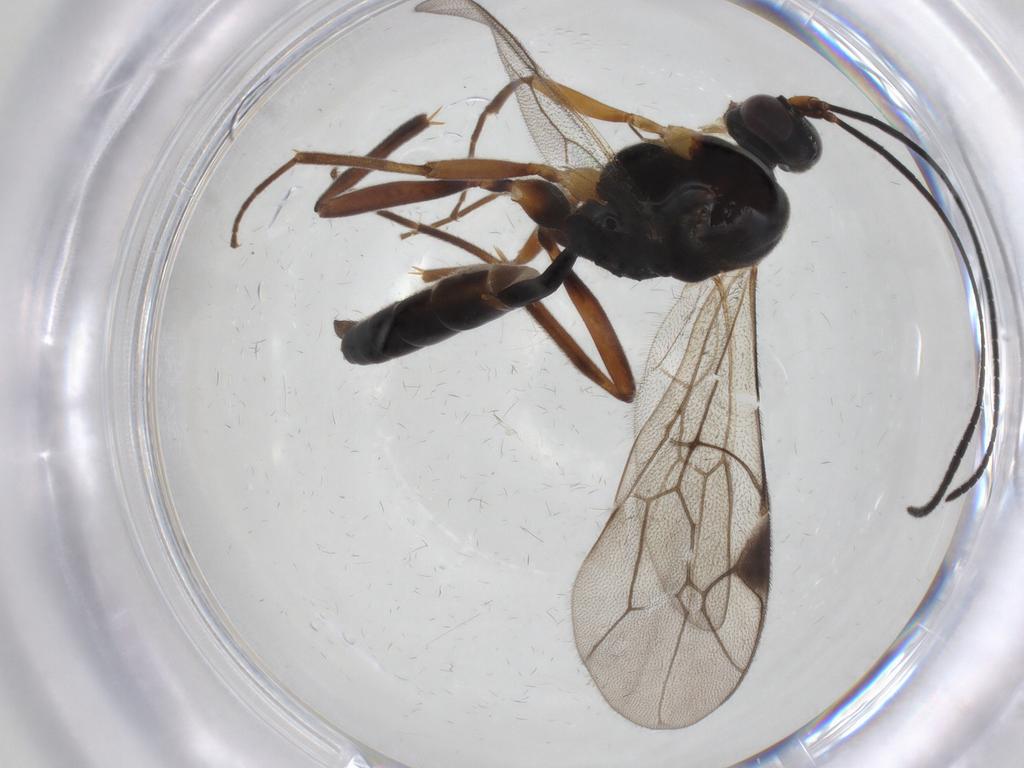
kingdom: Animalia
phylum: Arthropoda
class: Insecta
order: Hymenoptera
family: Ichneumonidae
